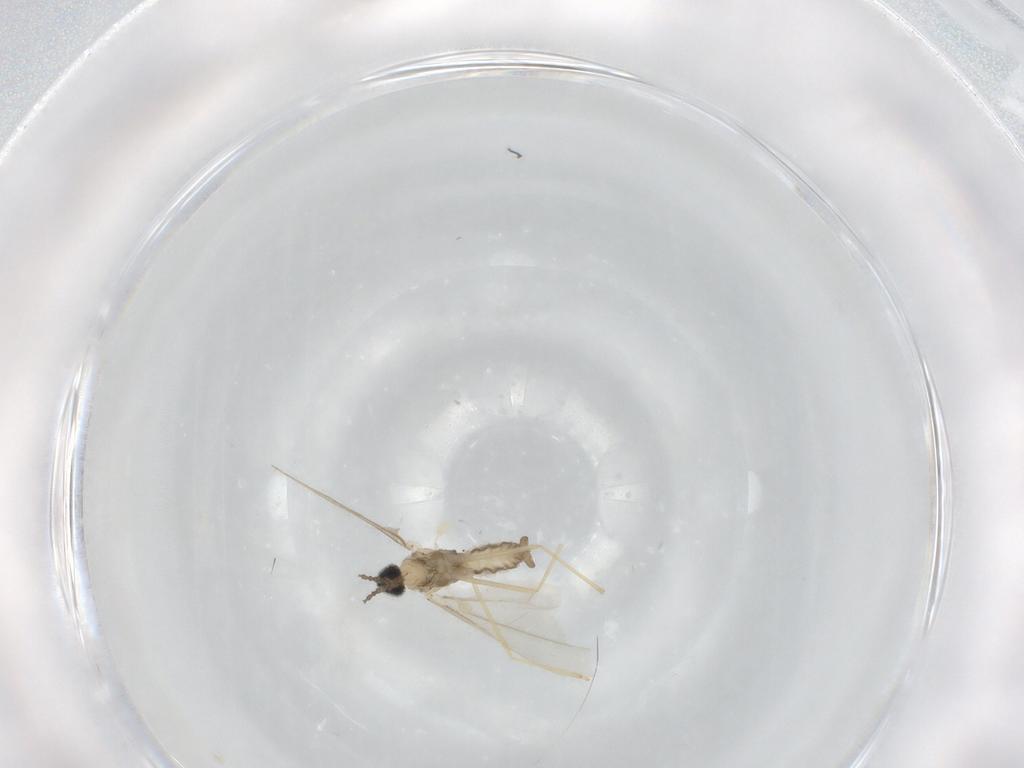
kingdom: Animalia
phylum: Arthropoda
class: Insecta
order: Diptera
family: Cecidomyiidae
